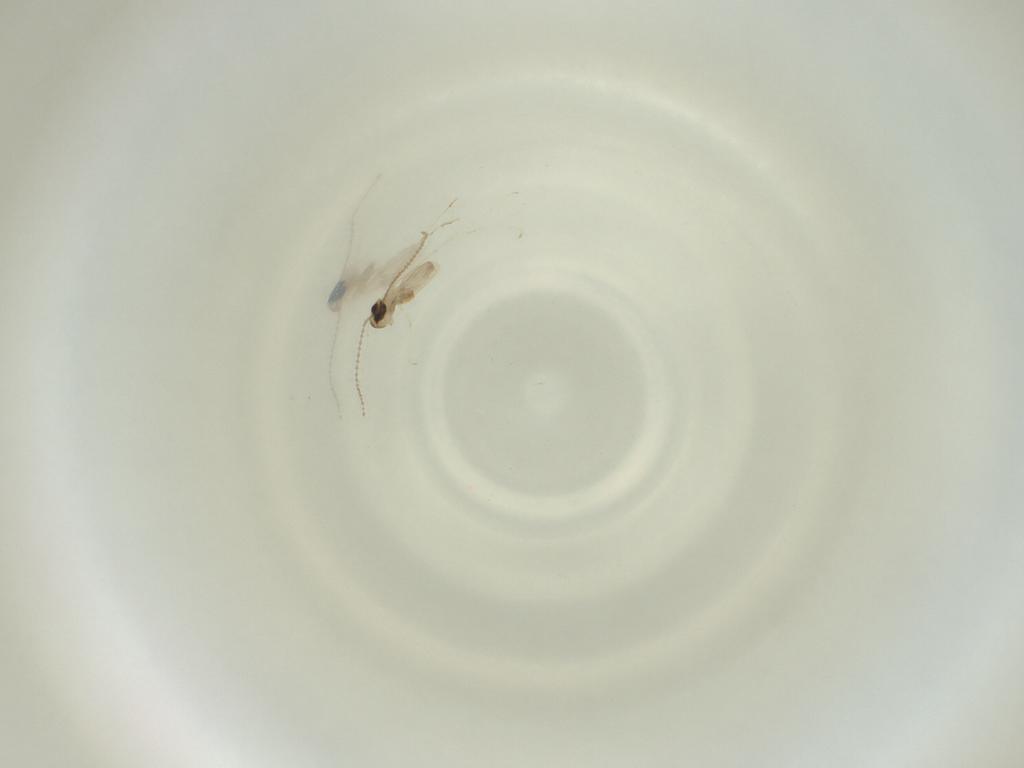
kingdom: Animalia
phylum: Arthropoda
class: Insecta
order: Diptera
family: Cecidomyiidae
